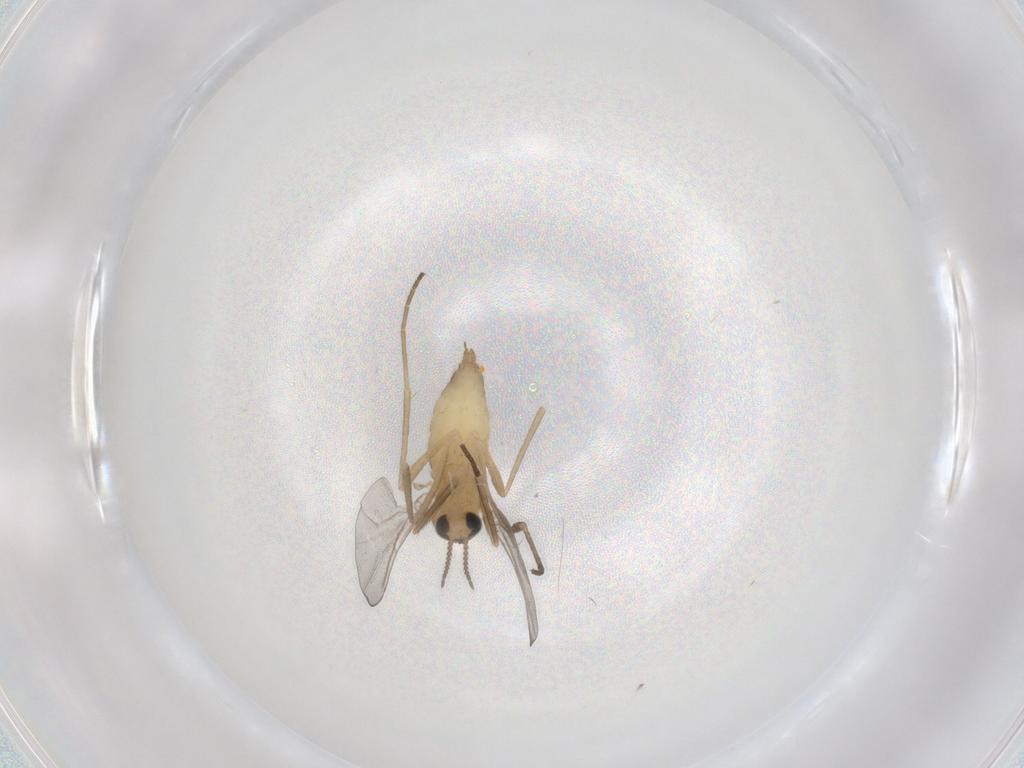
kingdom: Animalia
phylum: Arthropoda
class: Insecta
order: Diptera
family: Cecidomyiidae
